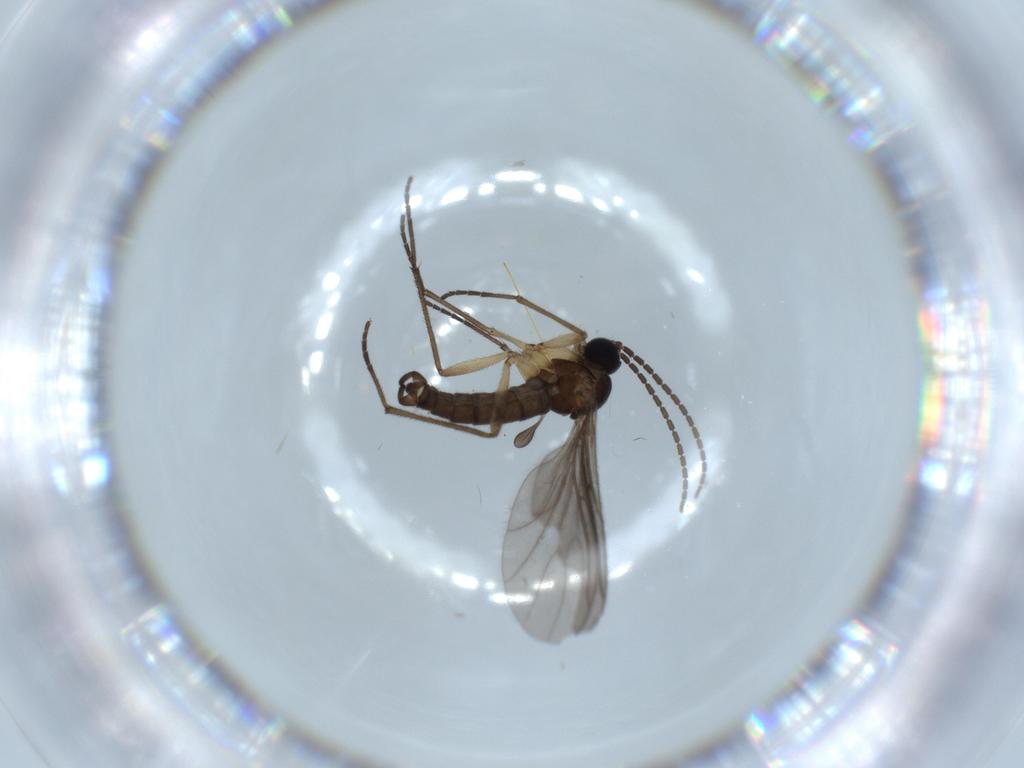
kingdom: Animalia
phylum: Arthropoda
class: Insecta
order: Diptera
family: Sciaridae
